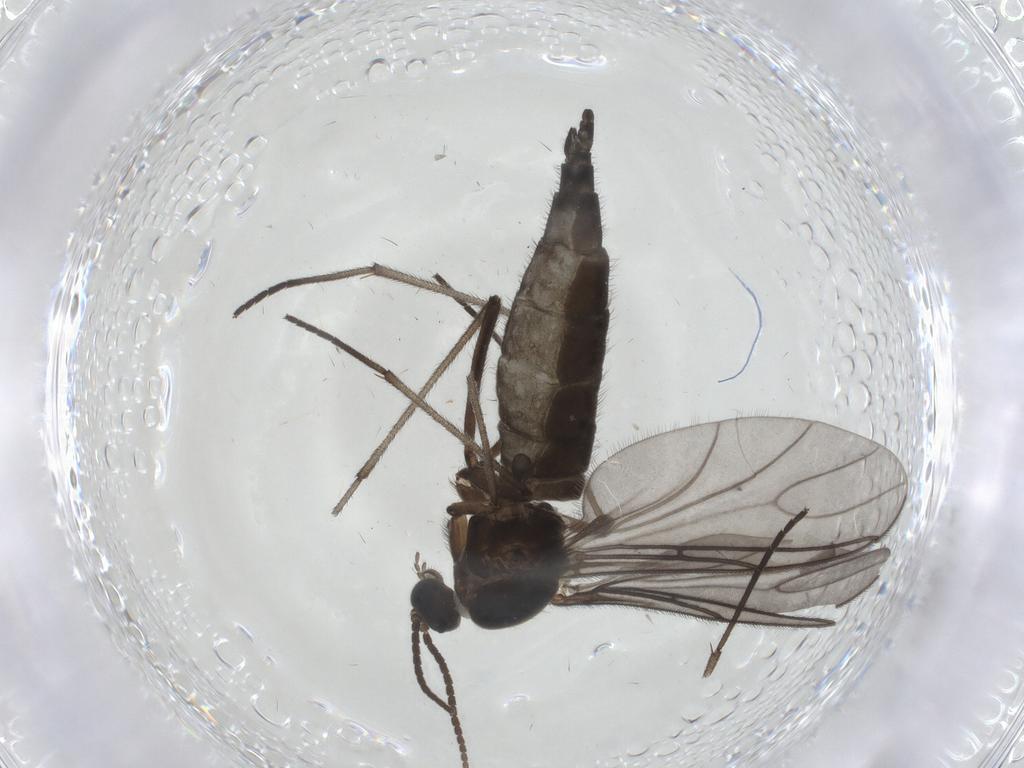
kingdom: Animalia
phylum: Arthropoda
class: Insecta
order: Diptera
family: Sciaridae
